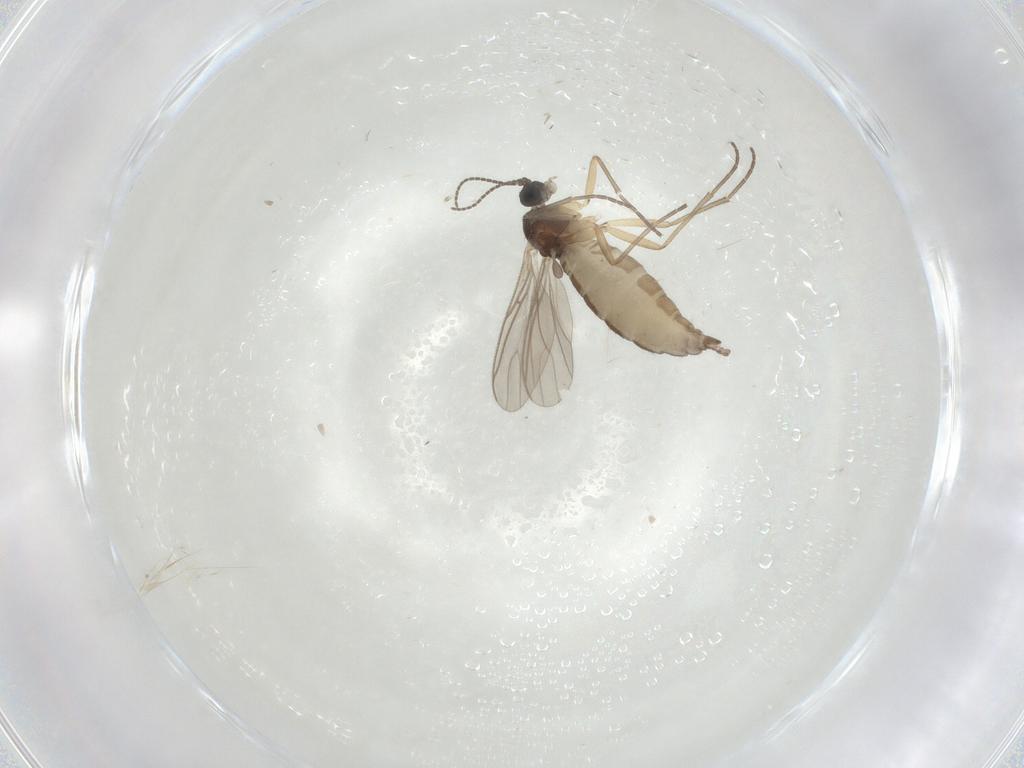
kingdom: Animalia
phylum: Arthropoda
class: Insecta
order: Diptera
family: Sciaridae
